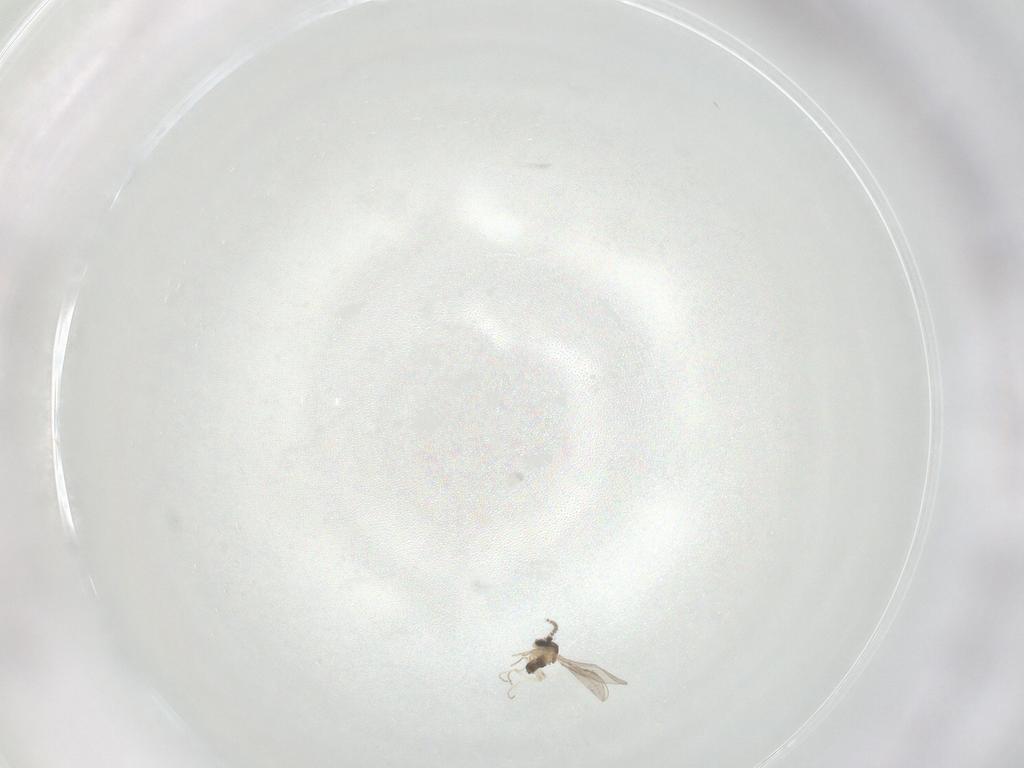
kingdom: Animalia
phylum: Arthropoda
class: Insecta
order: Diptera
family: Cecidomyiidae
